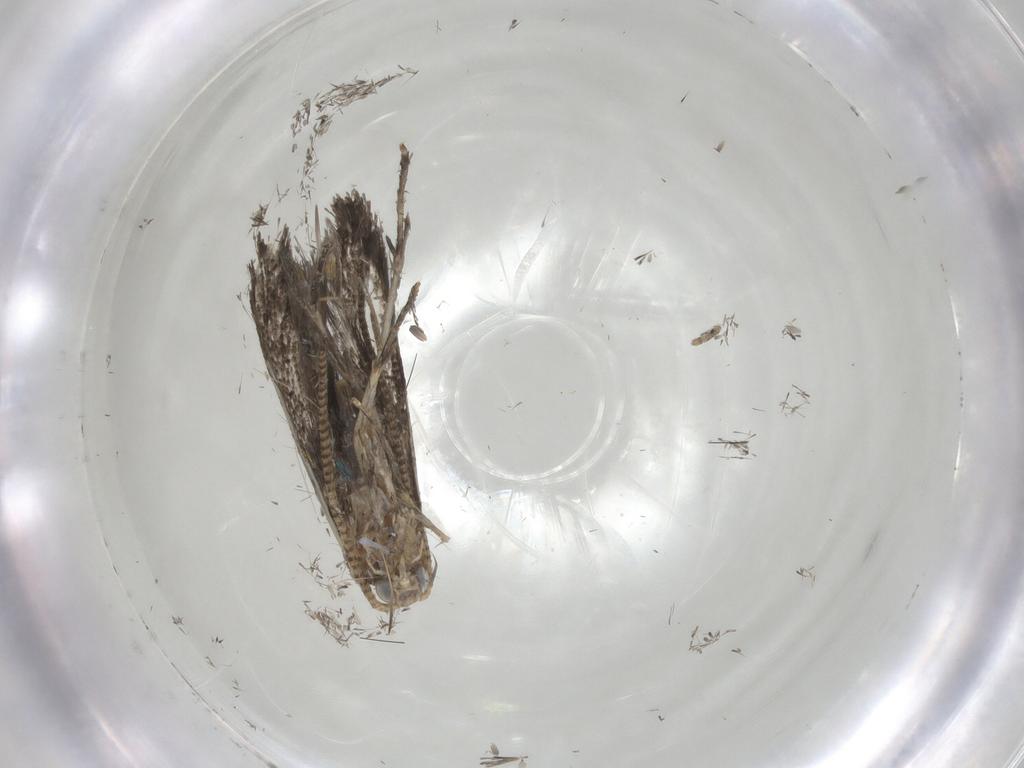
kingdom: Animalia
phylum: Arthropoda
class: Insecta
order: Lepidoptera
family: Tineidae
